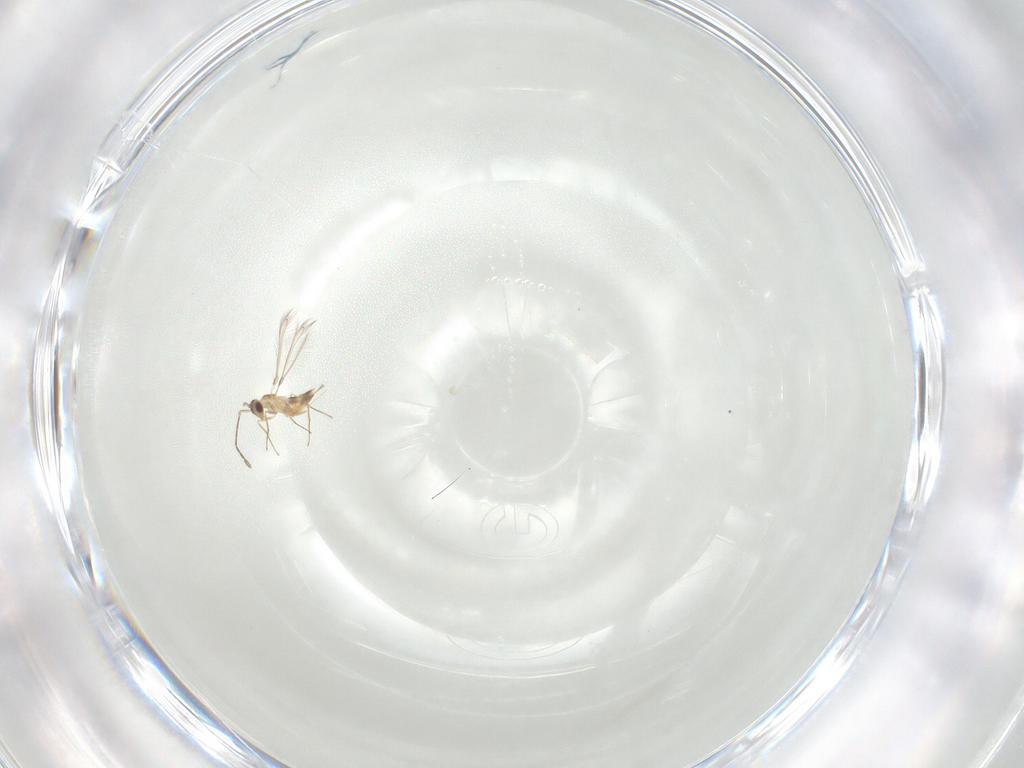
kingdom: Animalia
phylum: Arthropoda
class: Insecta
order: Hymenoptera
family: Mymaridae
